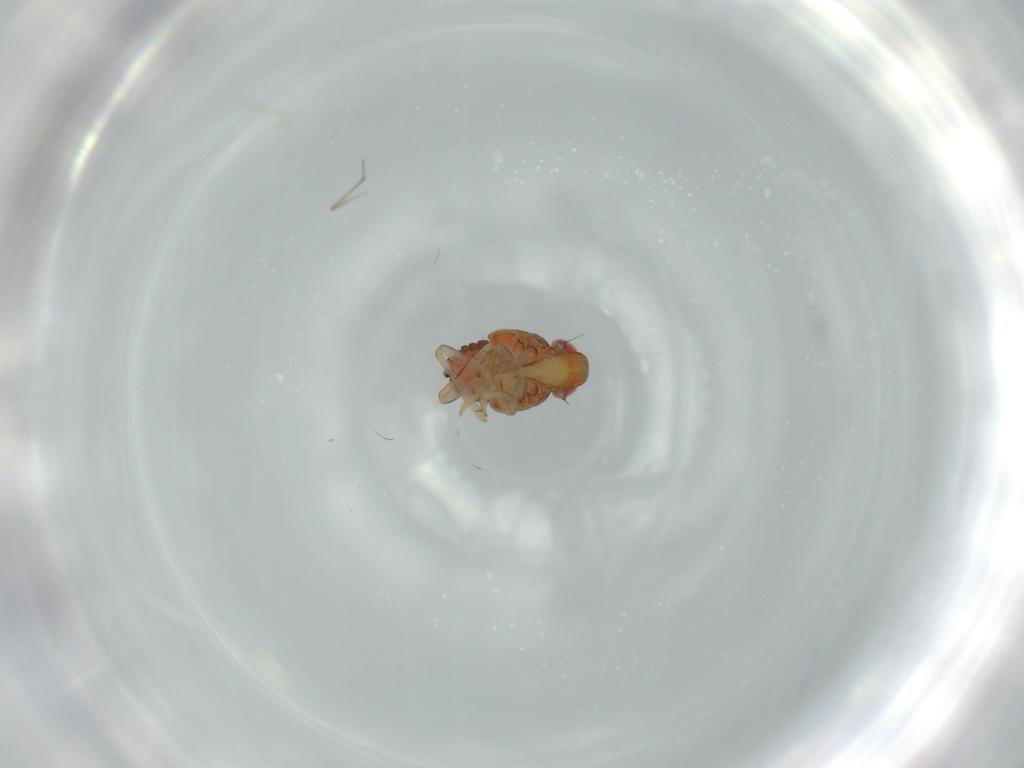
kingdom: Animalia
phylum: Arthropoda
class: Insecta
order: Hemiptera
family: Issidae
